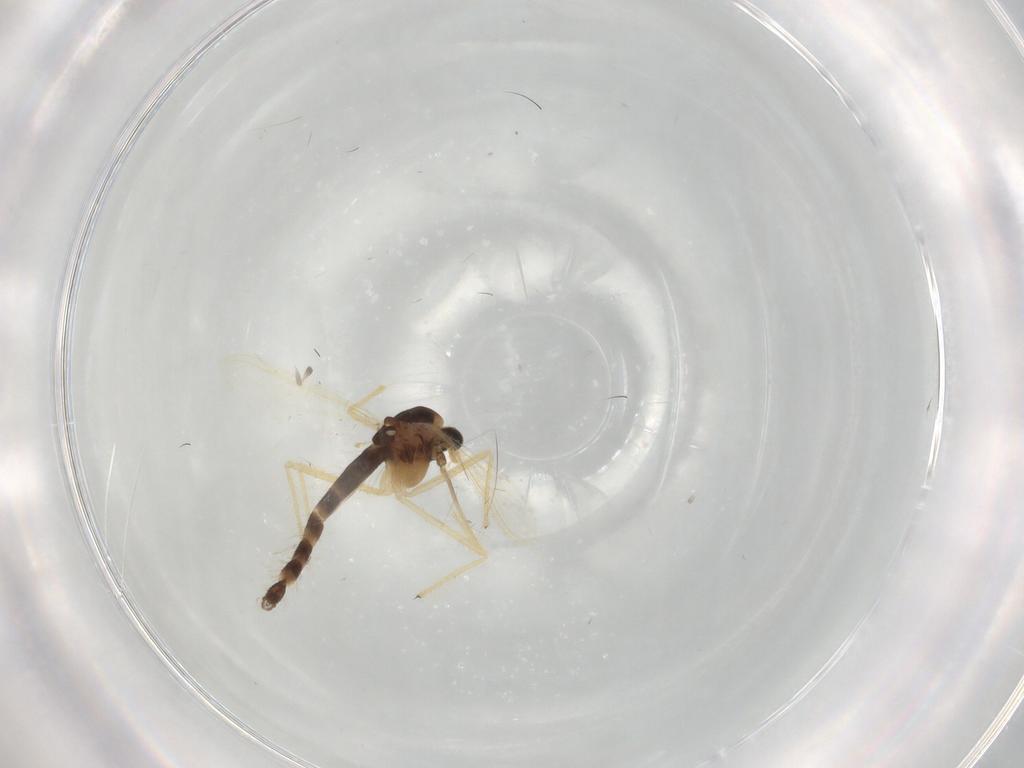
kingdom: Animalia
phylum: Arthropoda
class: Insecta
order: Diptera
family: Chironomidae
